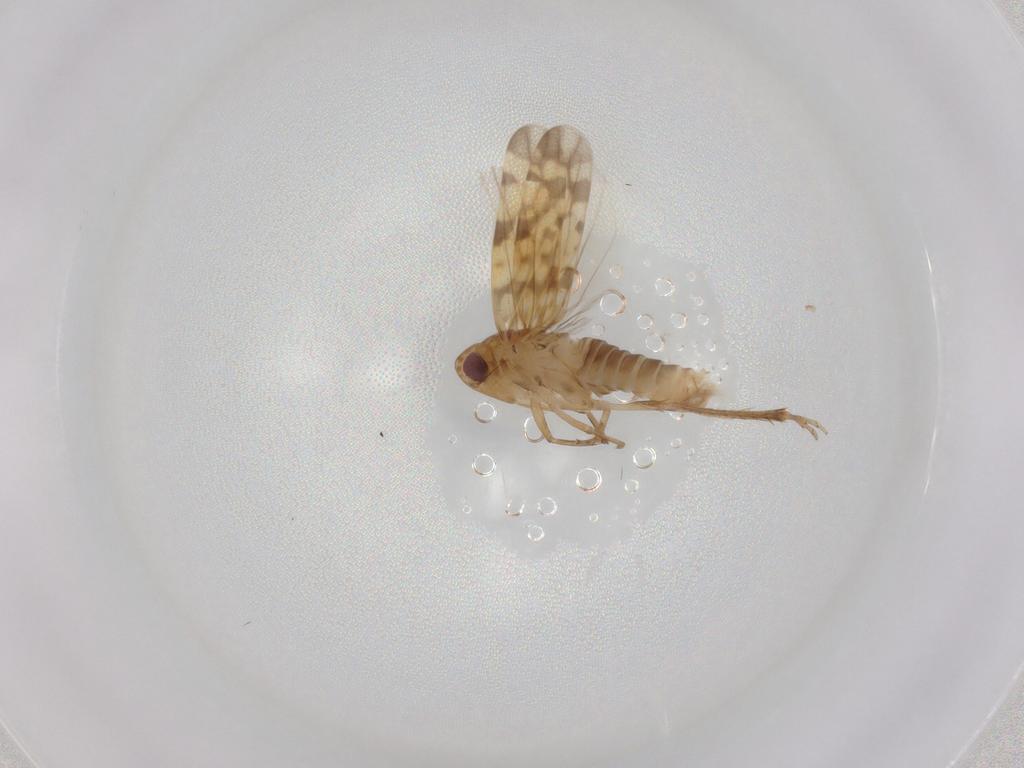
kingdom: Animalia
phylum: Arthropoda
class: Insecta
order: Hemiptera
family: Cicadellidae
